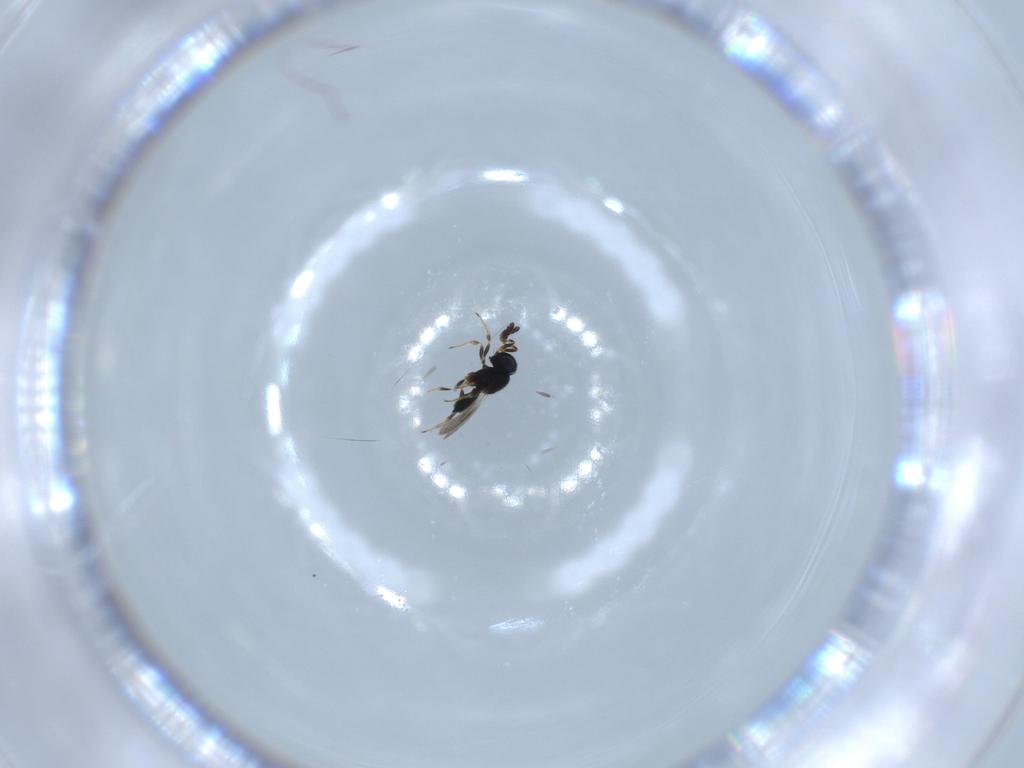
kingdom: Animalia
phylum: Arthropoda
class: Insecta
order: Hymenoptera
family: Scelionidae
